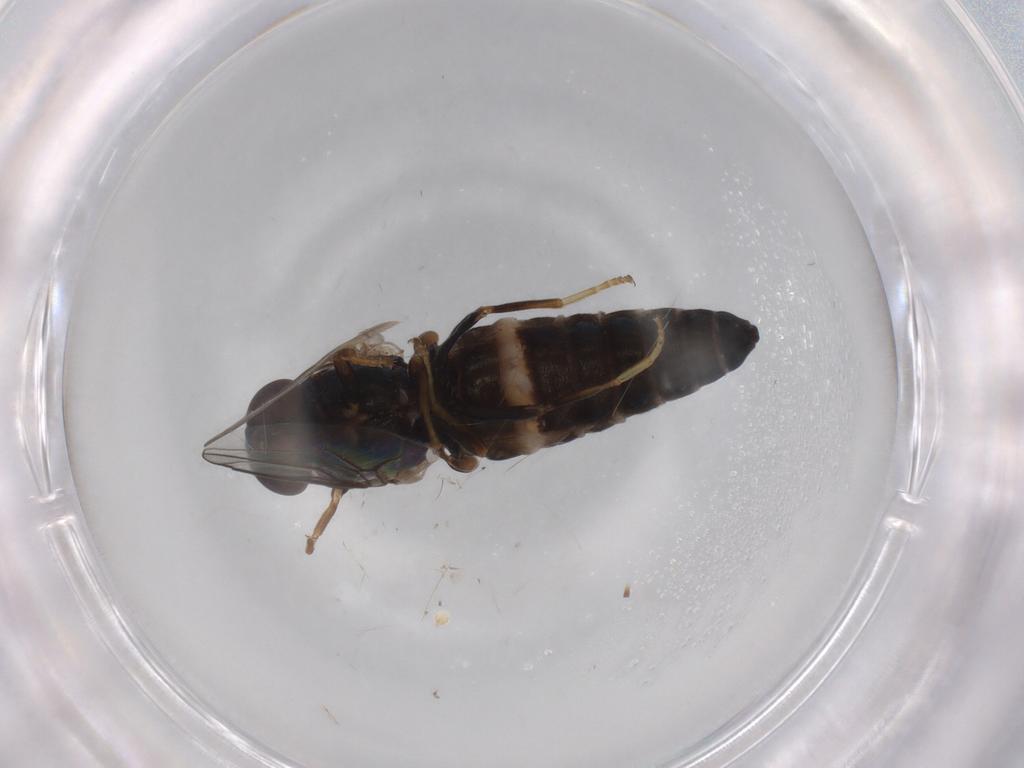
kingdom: Animalia
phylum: Arthropoda
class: Insecta
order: Diptera
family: Scenopinidae
